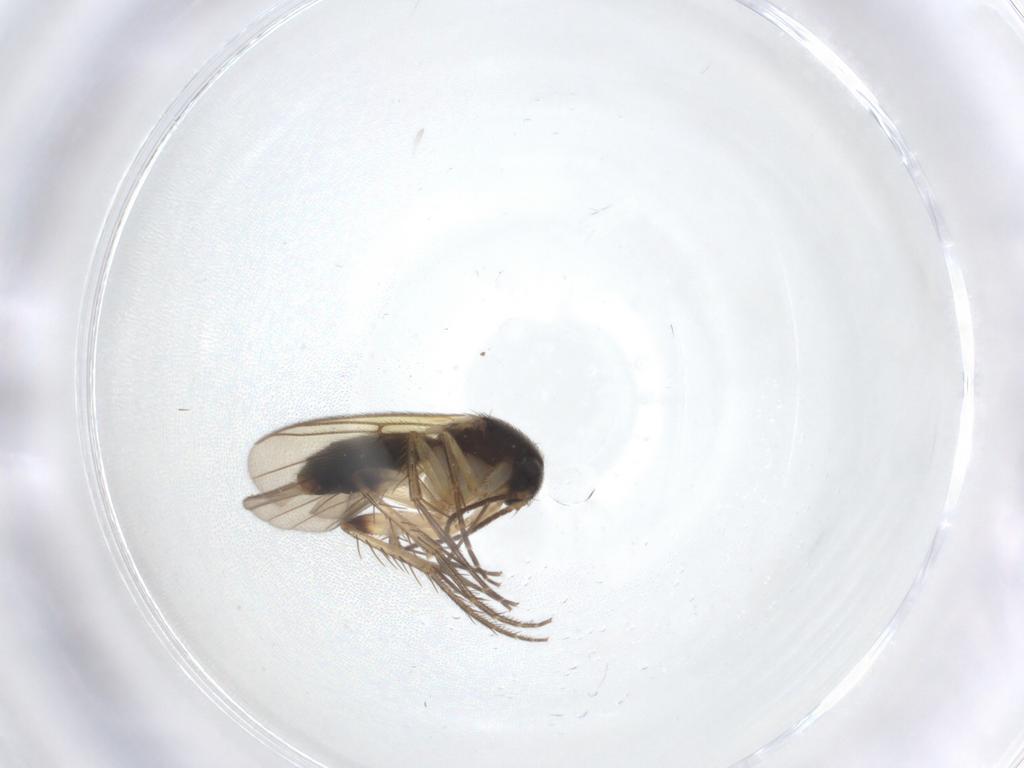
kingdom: Animalia
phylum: Arthropoda
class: Insecta
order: Diptera
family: Chironomidae
